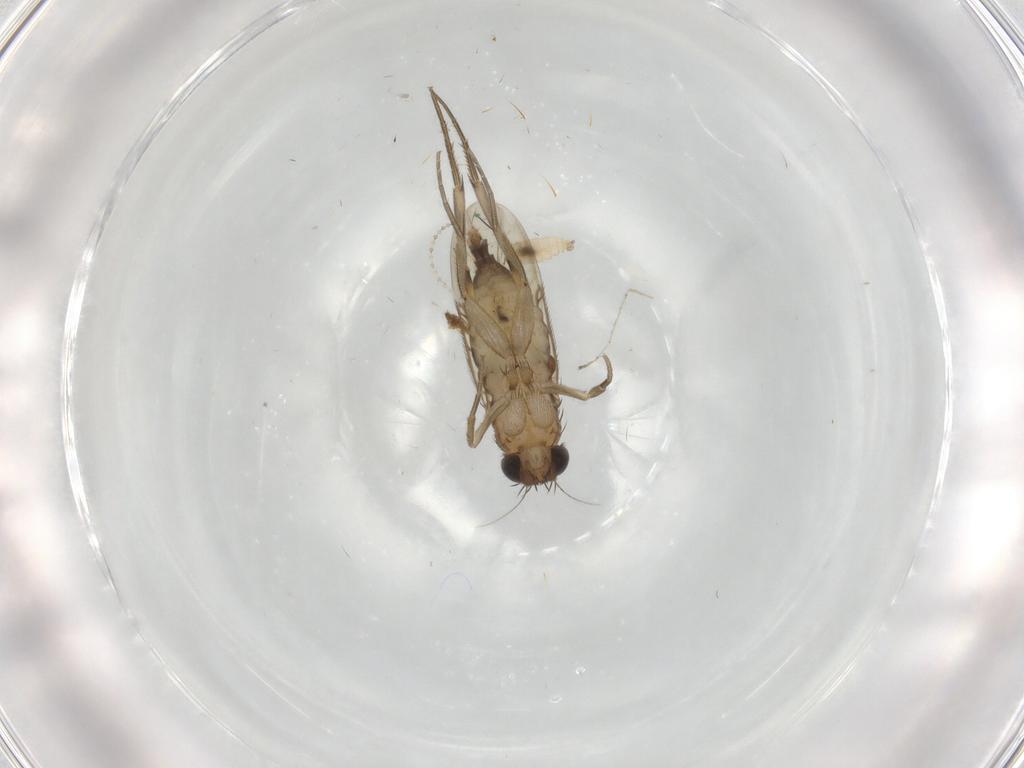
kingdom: Animalia
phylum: Arthropoda
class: Insecta
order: Diptera
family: Phoridae
